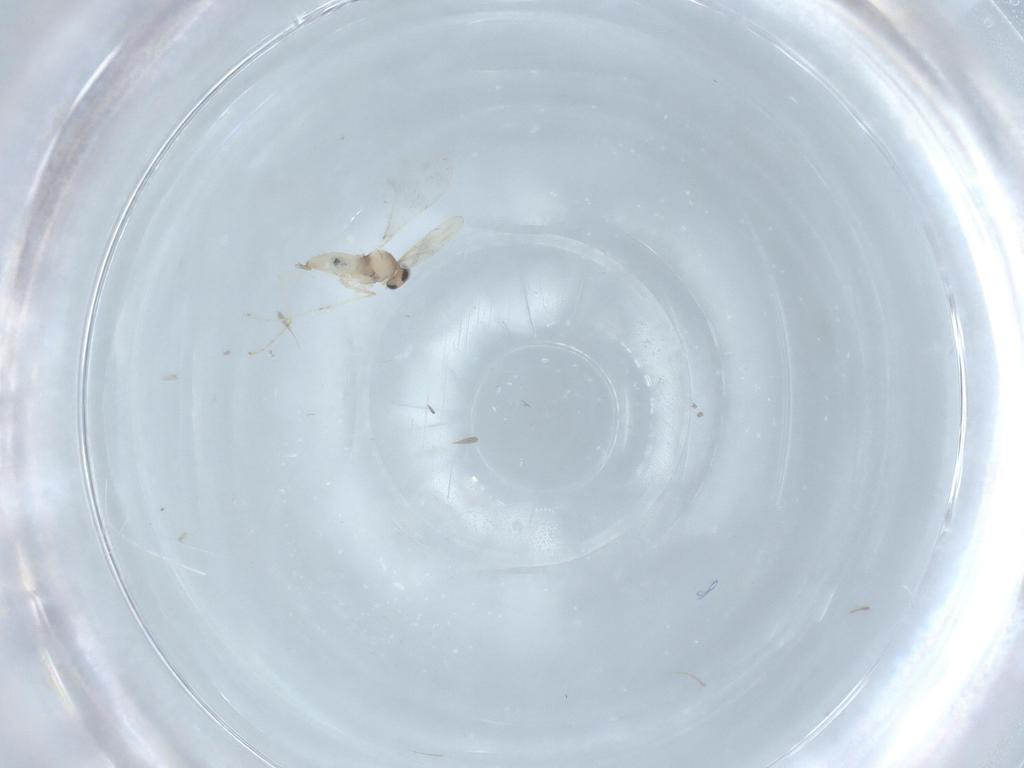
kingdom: Animalia
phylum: Arthropoda
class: Insecta
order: Diptera
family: Cecidomyiidae
